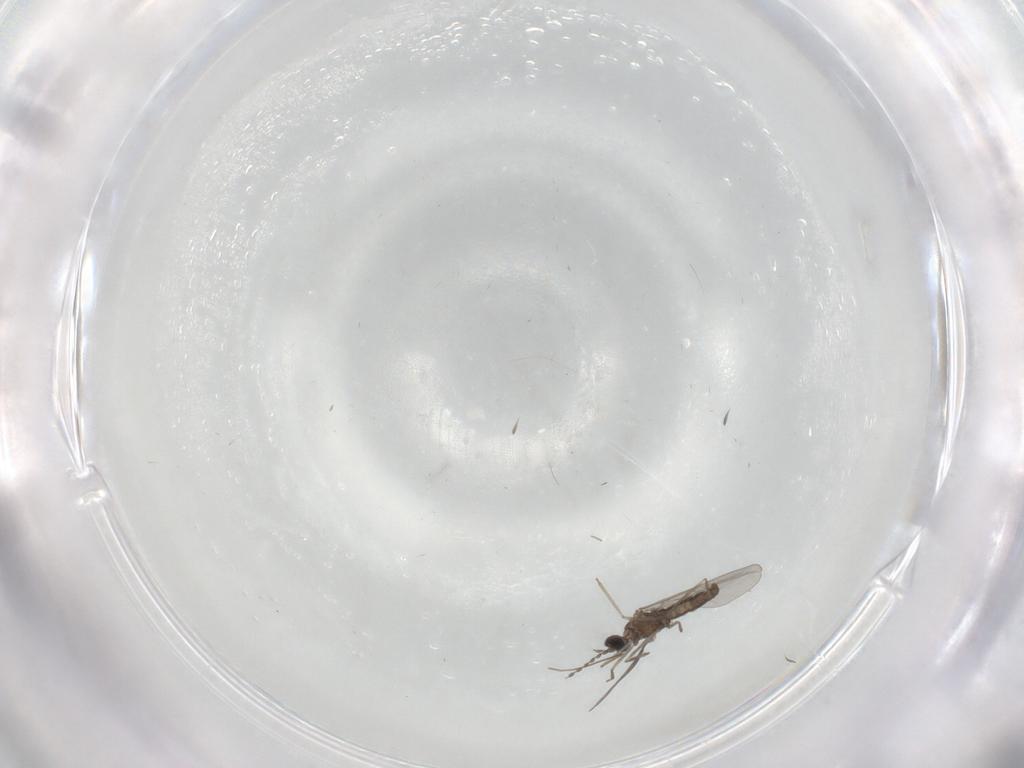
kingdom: Animalia
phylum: Arthropoda
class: Insecta
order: Diptera
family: Cecidomyiidae
